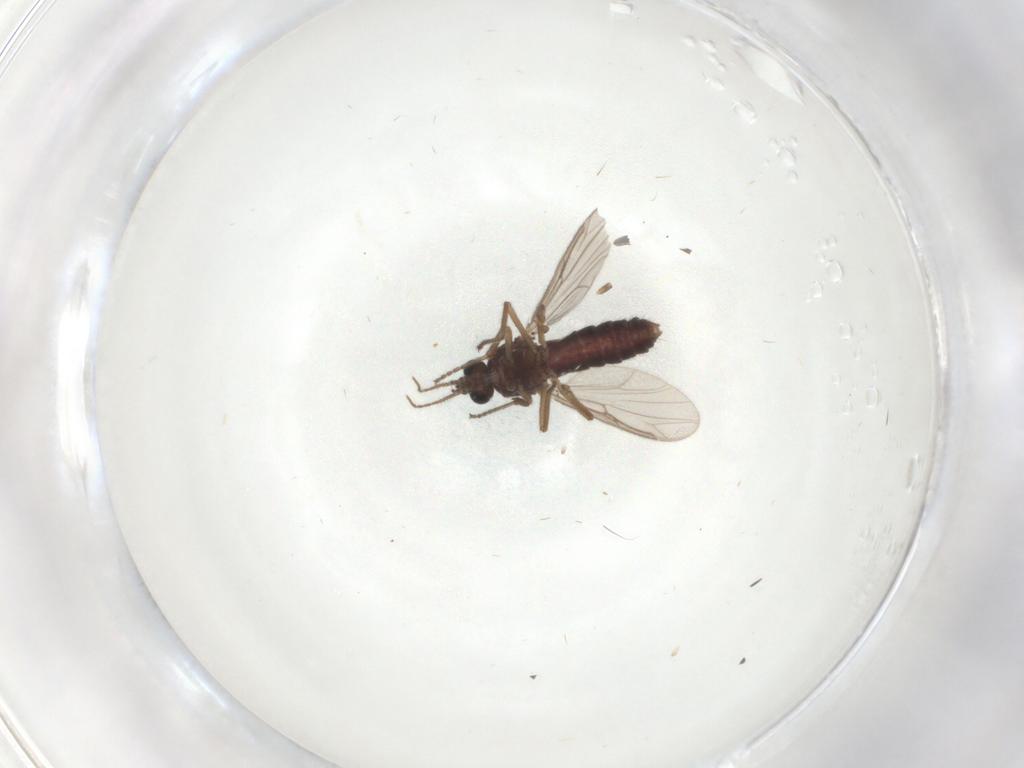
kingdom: Animalia
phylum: Arthropoda
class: Insecta
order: Diptera
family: Ceratopogonidae
